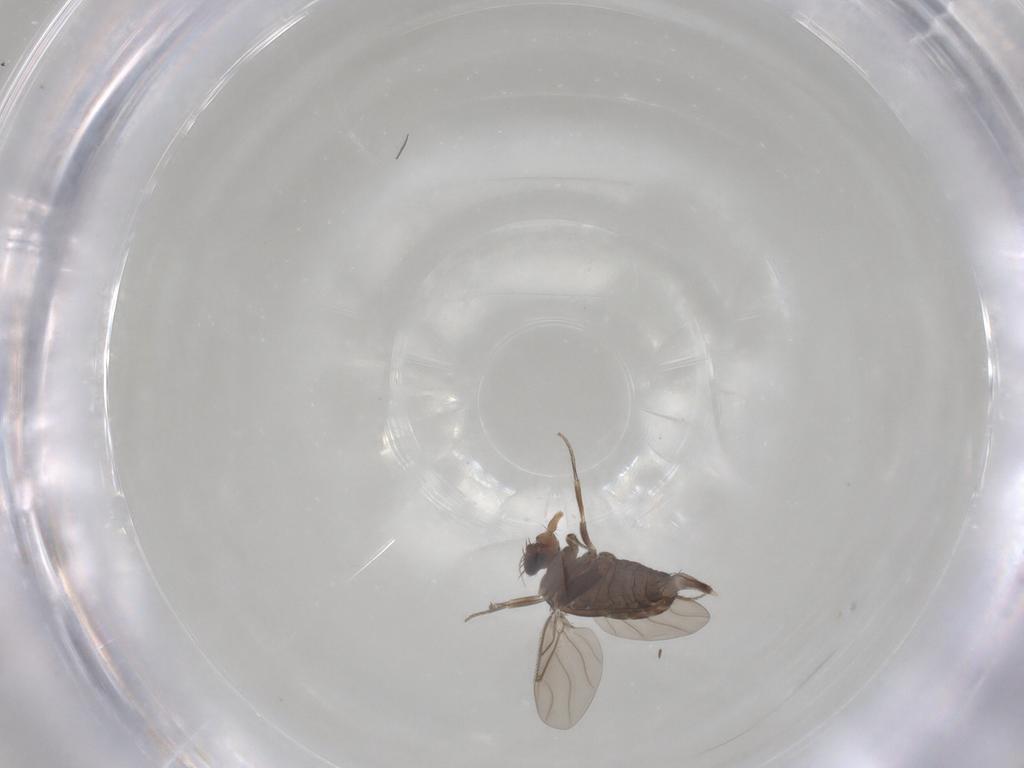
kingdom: Animalia
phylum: Arthropoda
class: Insecta
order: Diptera
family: Phoridae
